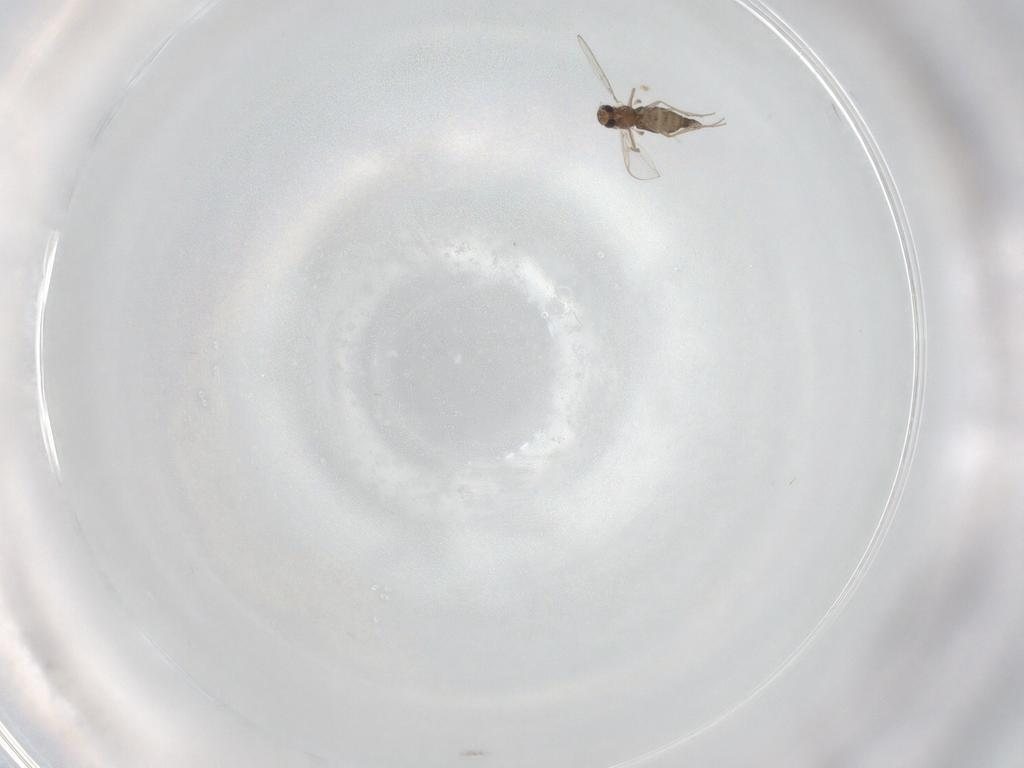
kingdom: Animalia
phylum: Arthropoda
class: Insecta
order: Diptera
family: Chironomidae
